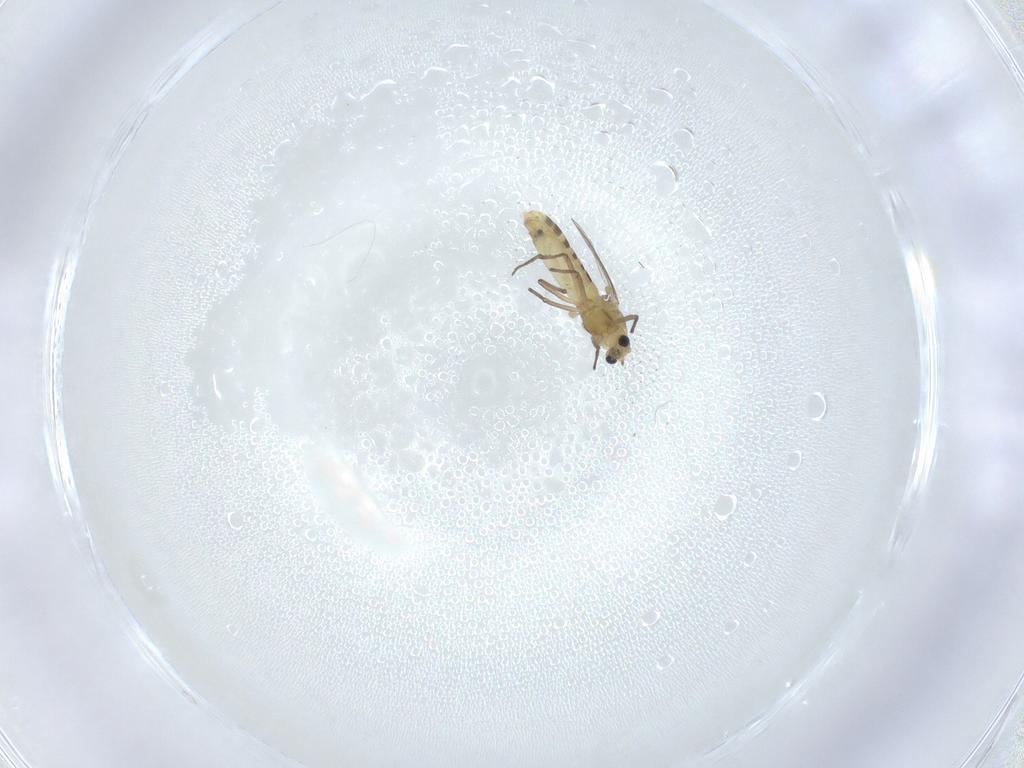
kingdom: Animalia
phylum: Arthropoda
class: Insecta
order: Diptera
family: Chironomidae
